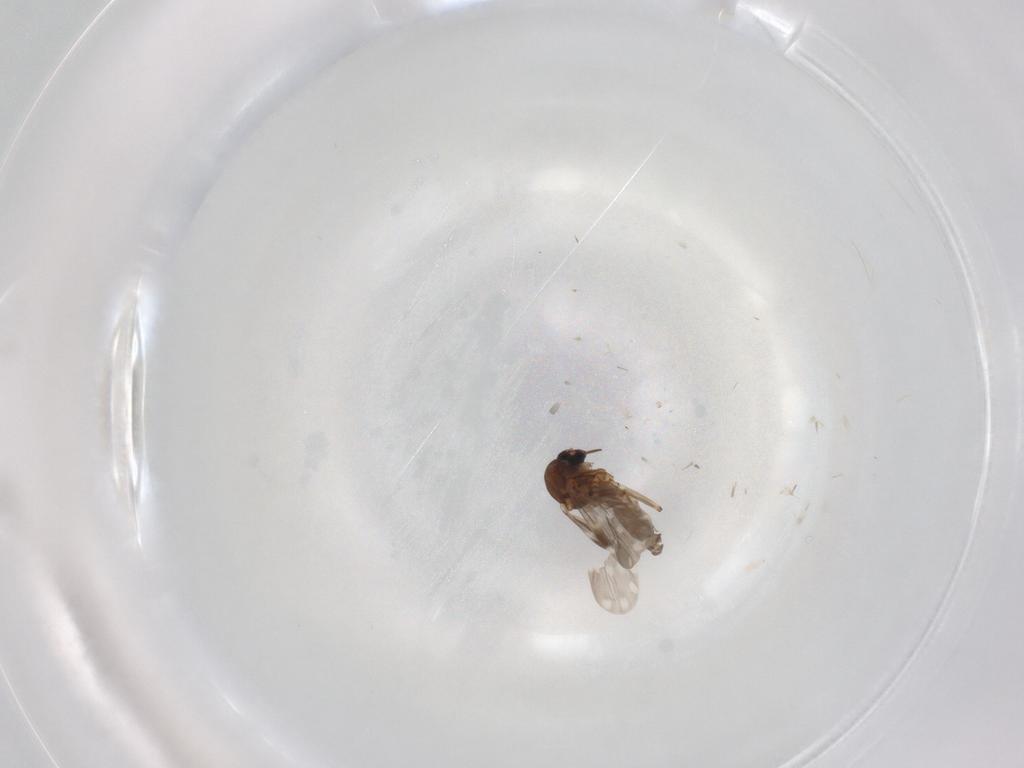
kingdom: Animalia
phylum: Arthropoda
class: Insecta
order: Diptera
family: Ceratopogonidae
